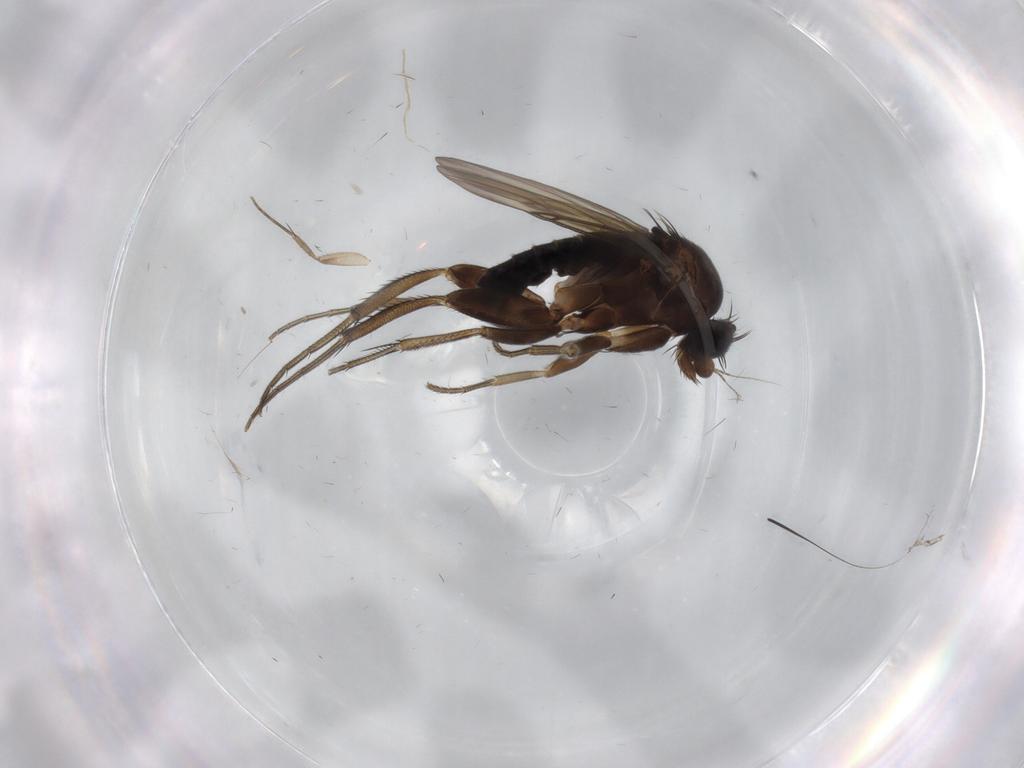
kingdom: Animalia
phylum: Arthropoda
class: Insecta
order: Diptera
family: Phoridae
